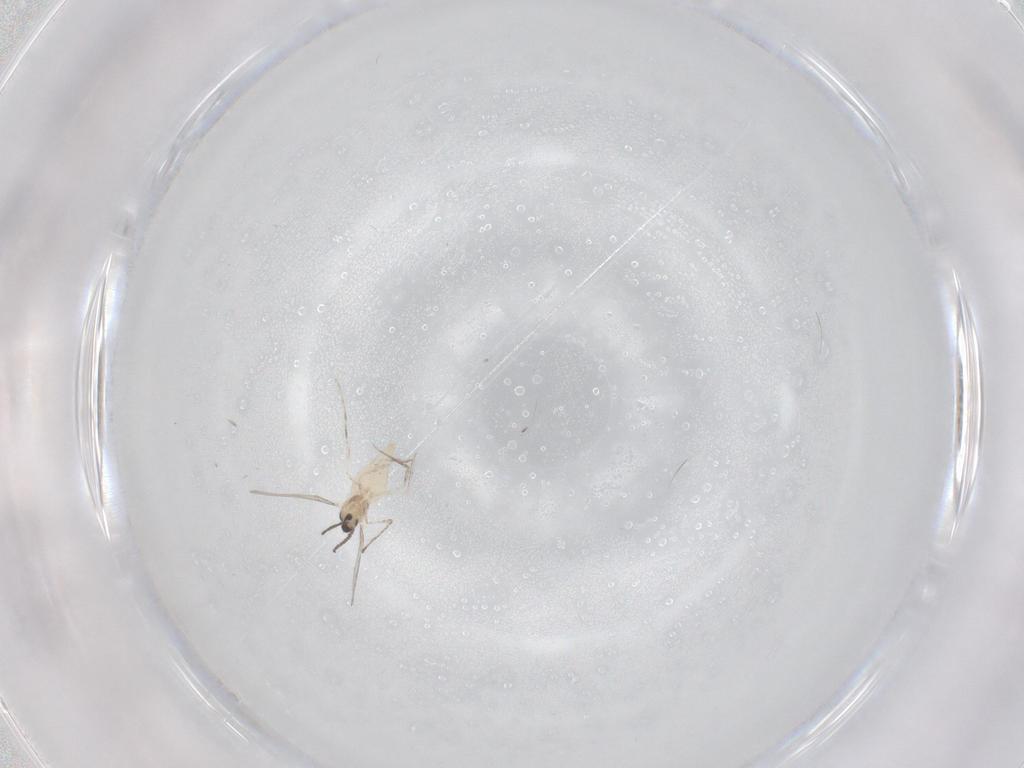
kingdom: Animalia
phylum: Arthropoda
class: Insecta
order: Diptera
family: Cecidomyiidae
